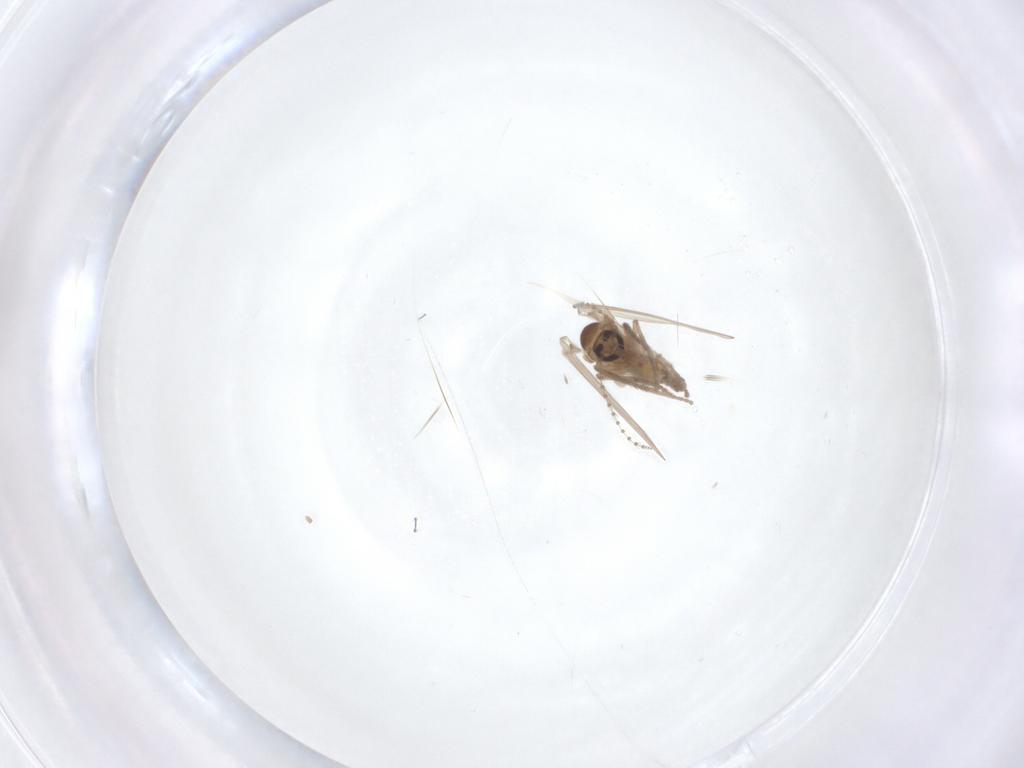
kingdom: Animalia
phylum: Arthropoda
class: Insecta
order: Diptera
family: Psychodidae
